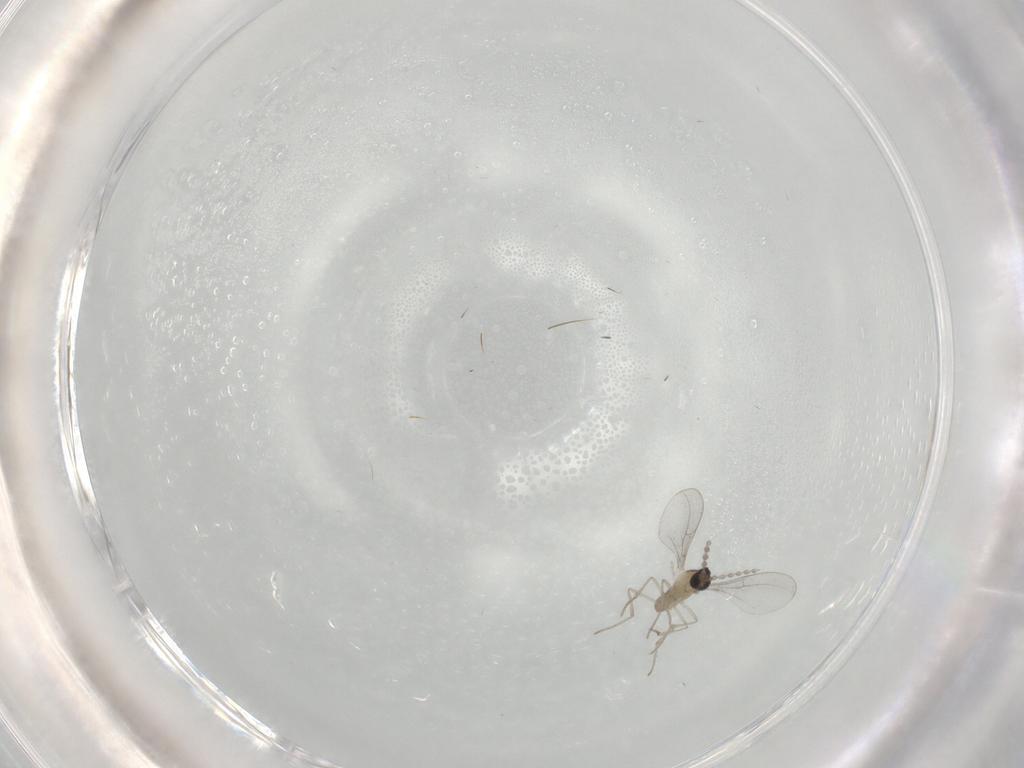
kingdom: Animalia
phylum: Arthropoda
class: Insecta
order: Diptera
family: Cecidomyiidae
